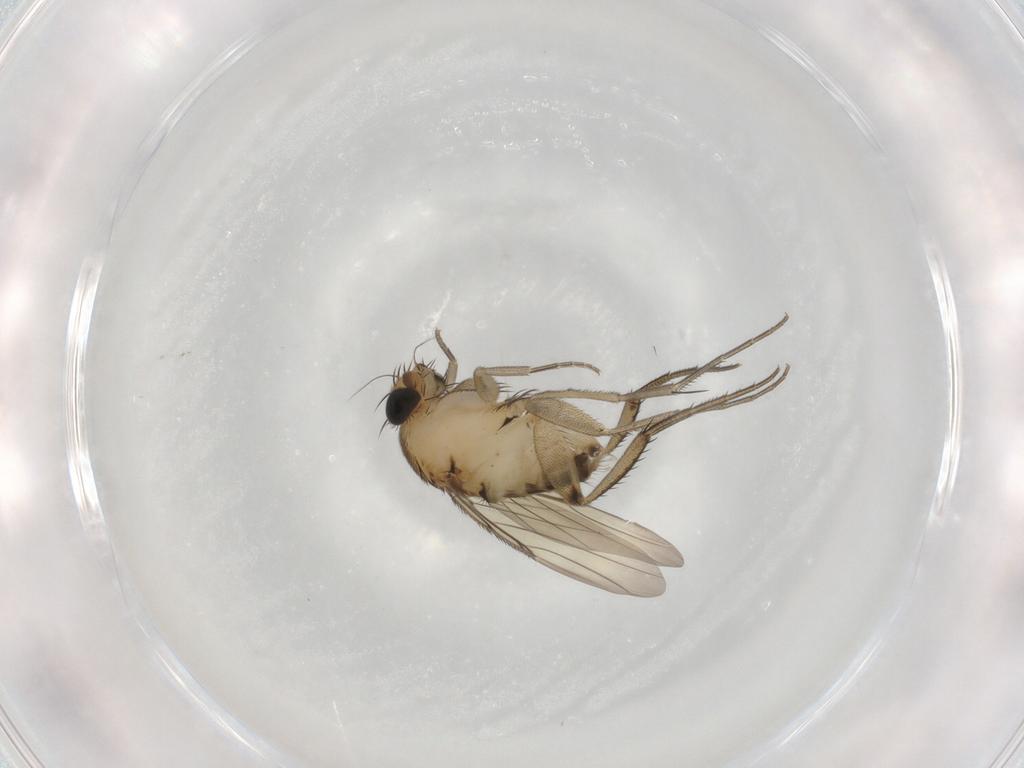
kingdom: Animalia
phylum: Arthropoda
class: Insecta
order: Diptera
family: Phoridae
